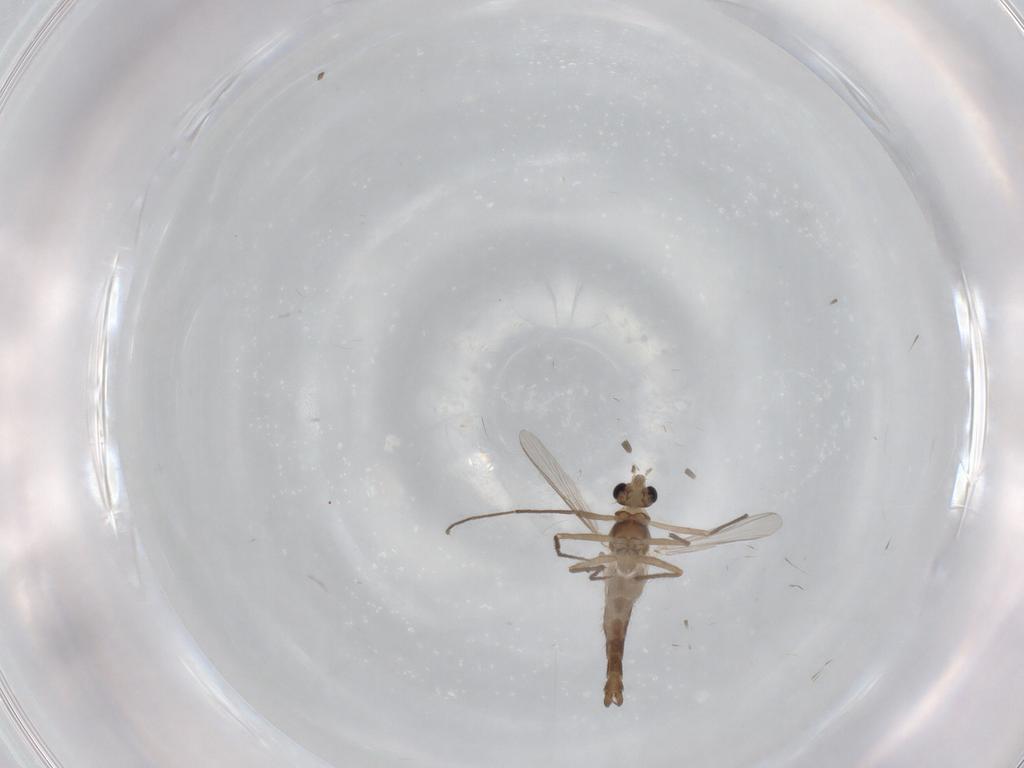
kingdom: Animalia
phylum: Arthropoda
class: Insecta
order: Diptera
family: Chironomidae
